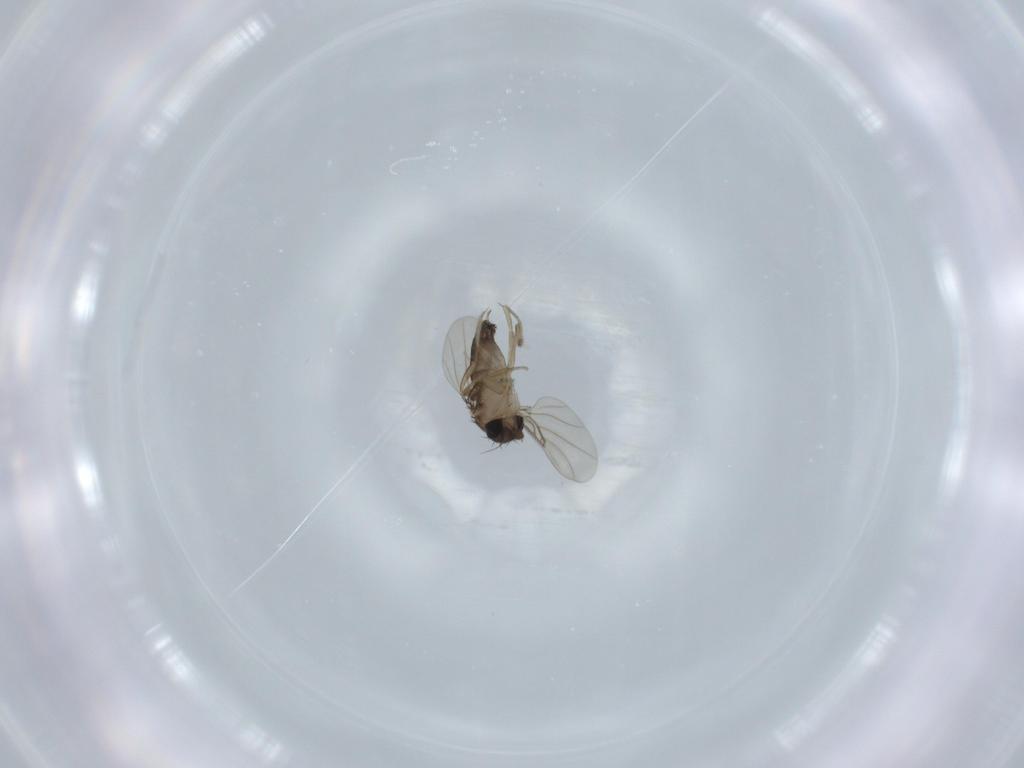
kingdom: Animalia
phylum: Arthropoda
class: Insecta
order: Diptera
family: Phoridae
